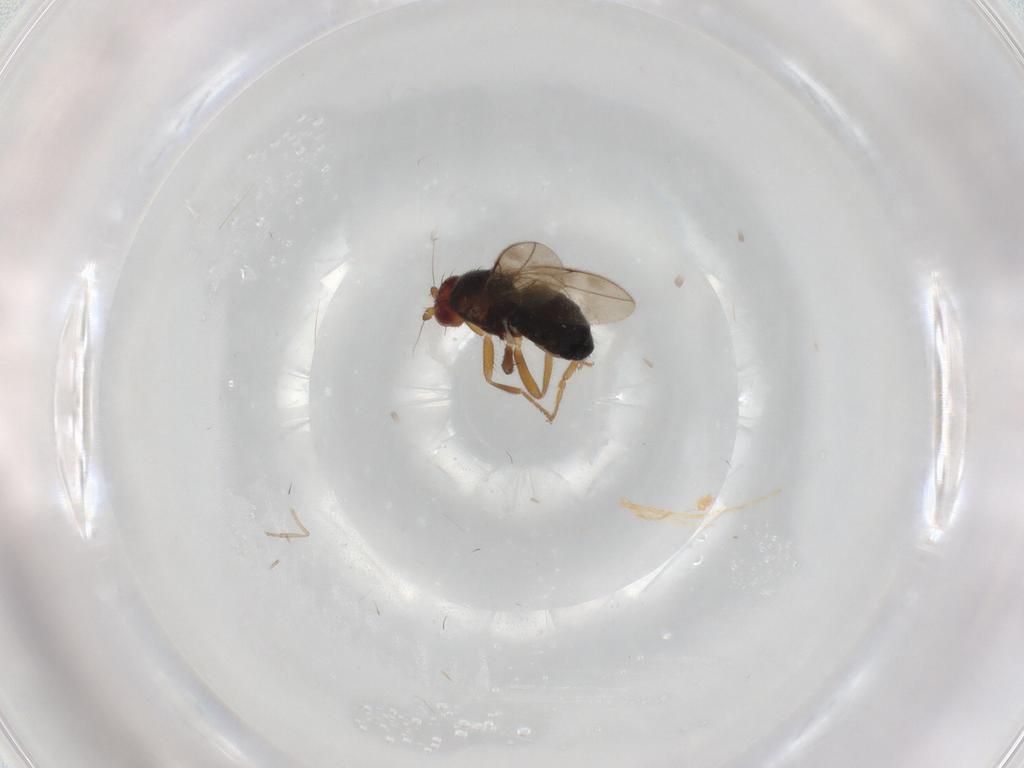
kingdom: Animalia
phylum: Arthropoda
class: Insecta
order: Diptera
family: Sphaeroceridae
